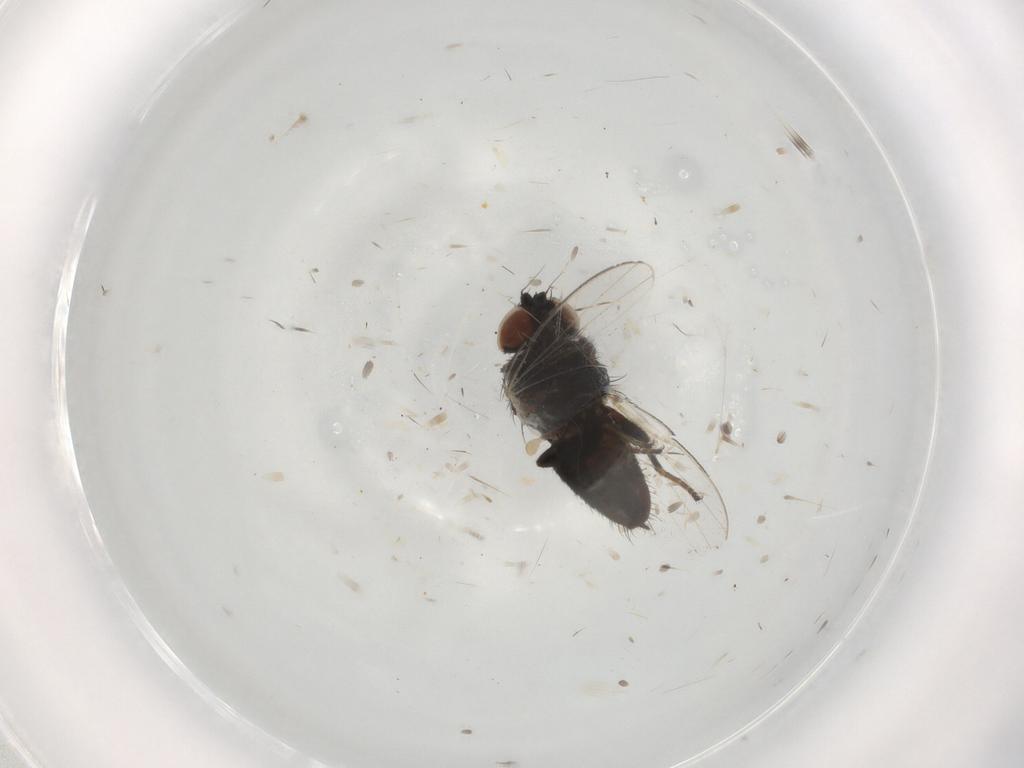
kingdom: Animalia
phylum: Arthropoda
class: Insecta
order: Diptera
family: Milichiidae
